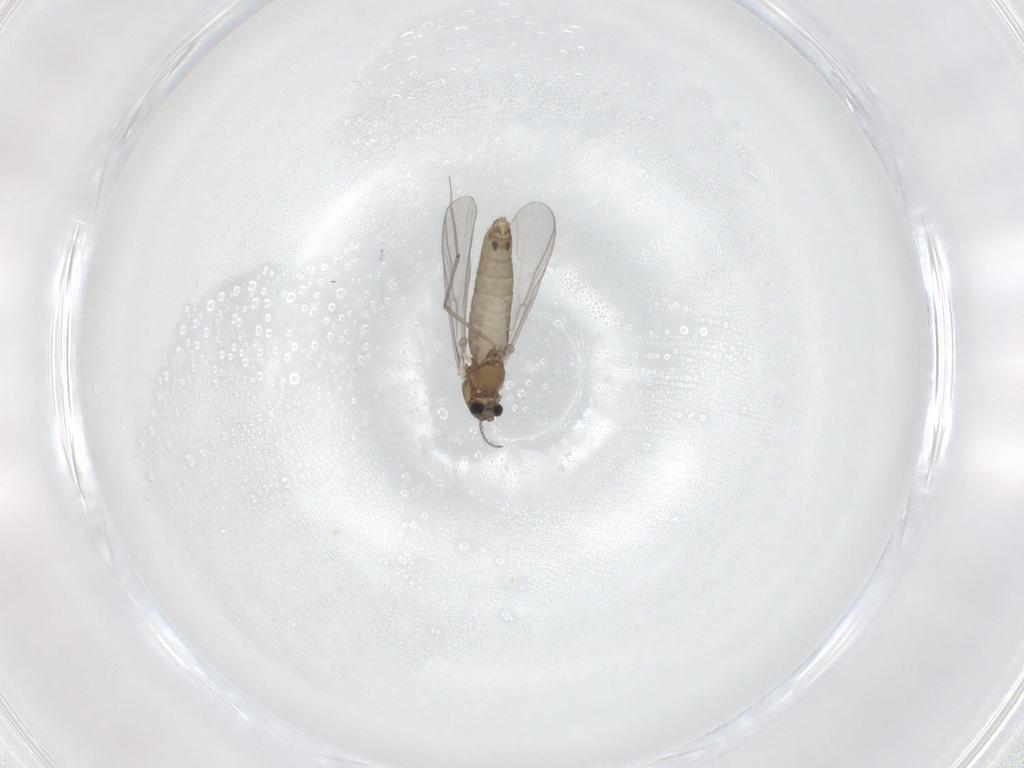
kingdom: Animalia
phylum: Arthropoda
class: Insecta
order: Diptera
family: Chironomidae
